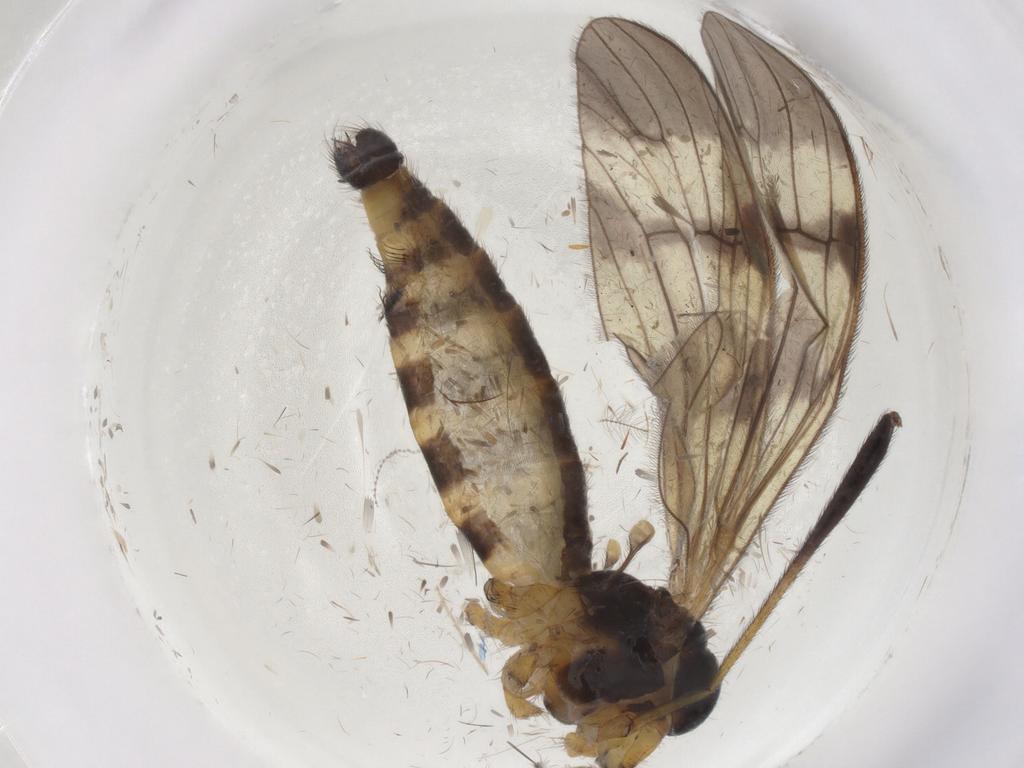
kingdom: Animalia
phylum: Arthropoda
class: Insecta
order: Diptera
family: Limoniidae
